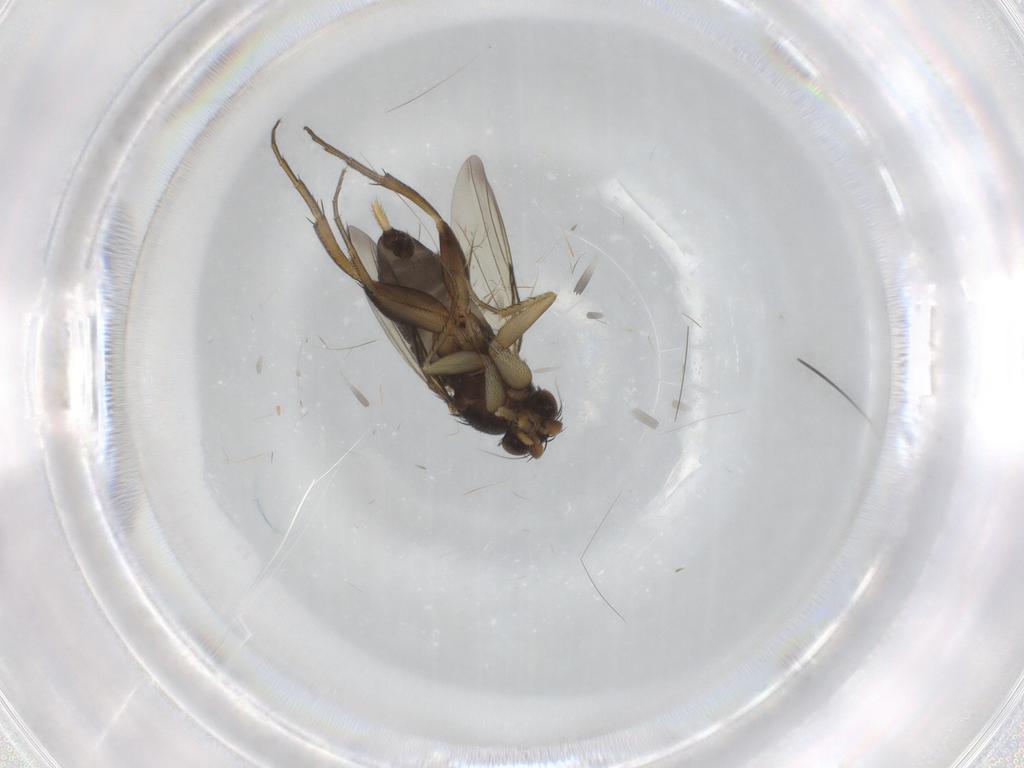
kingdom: Animalia
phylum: Arthropoda
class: Insecta
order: Diptera
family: Phoridae
